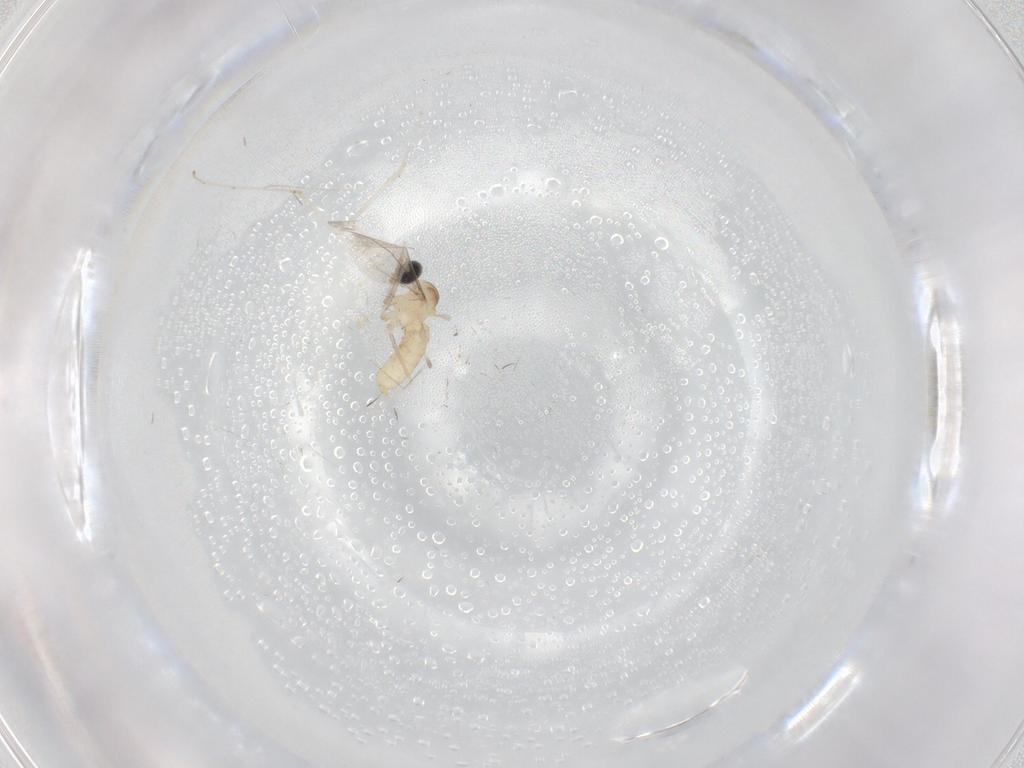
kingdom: Animalia
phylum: Arthropoda
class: Insecta
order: Diptera
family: Cecidomyiidae
